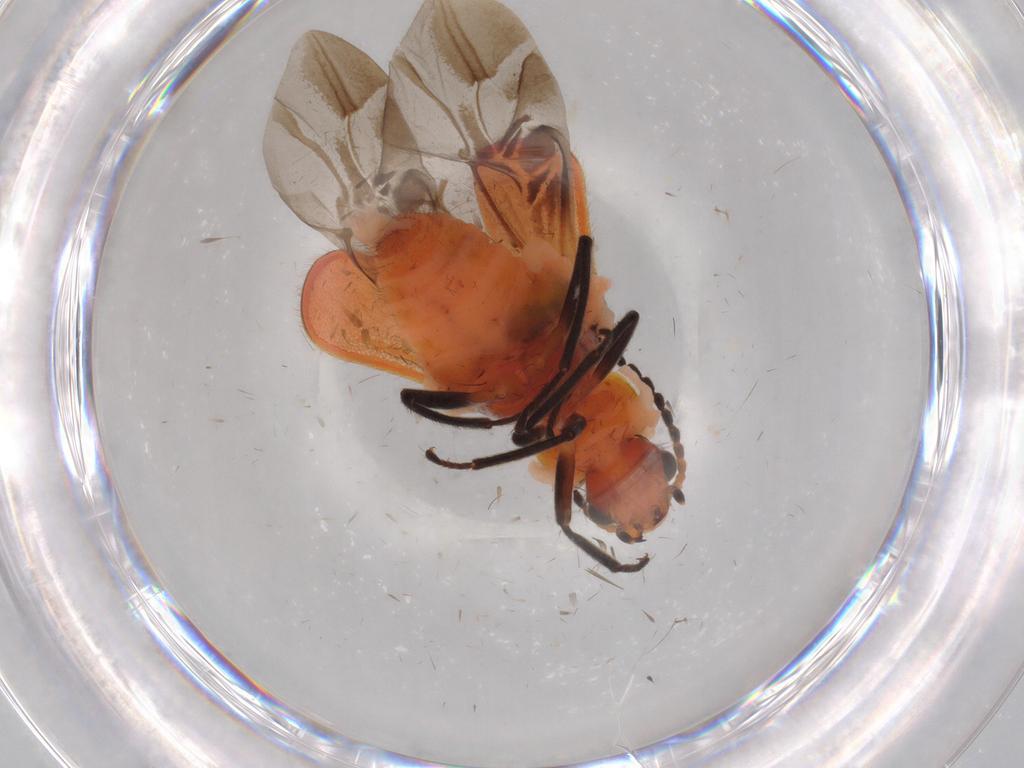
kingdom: Animalia
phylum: Arthropoda
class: Insecta
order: Coleoptera
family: Melyridae
